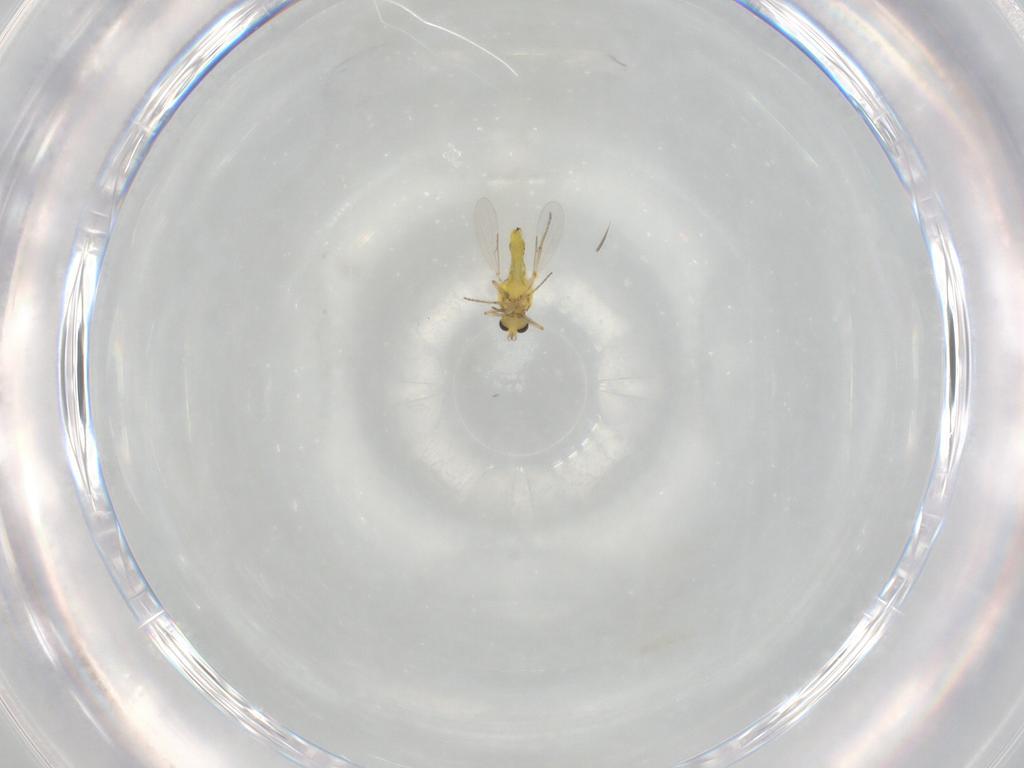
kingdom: Animalia
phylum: Arthropoda
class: Insecta
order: Diptera
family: Ceratopogonidae
